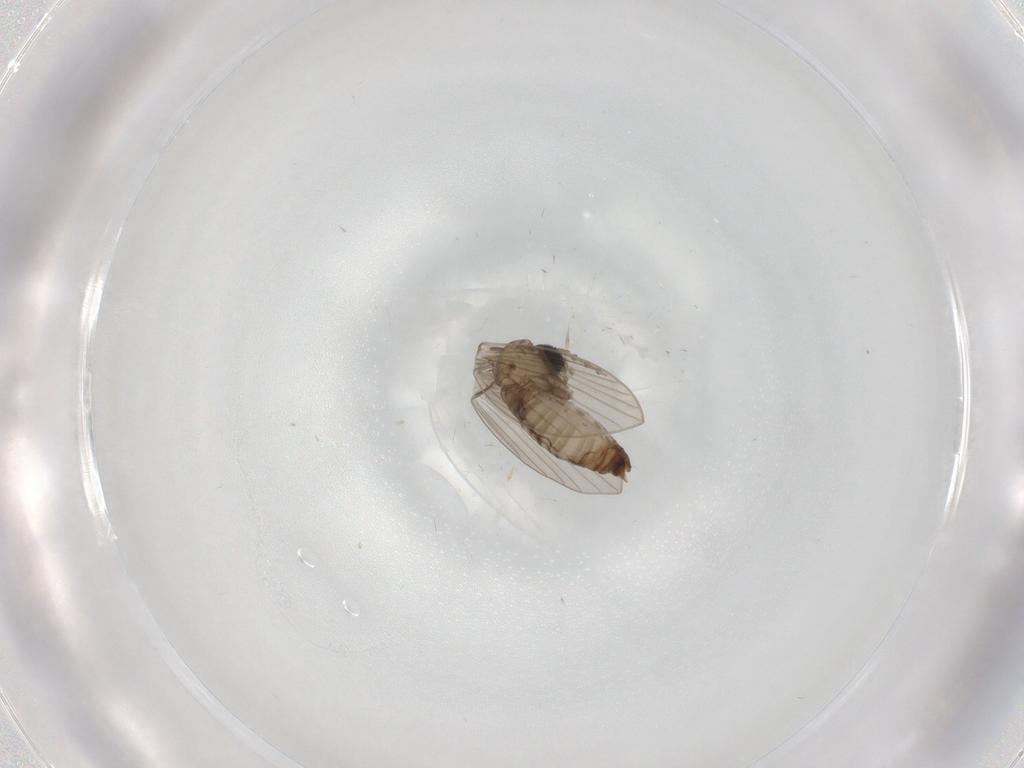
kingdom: Animalia
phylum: Arthropoda
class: Insecta
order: Diptera
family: Psychodidae
